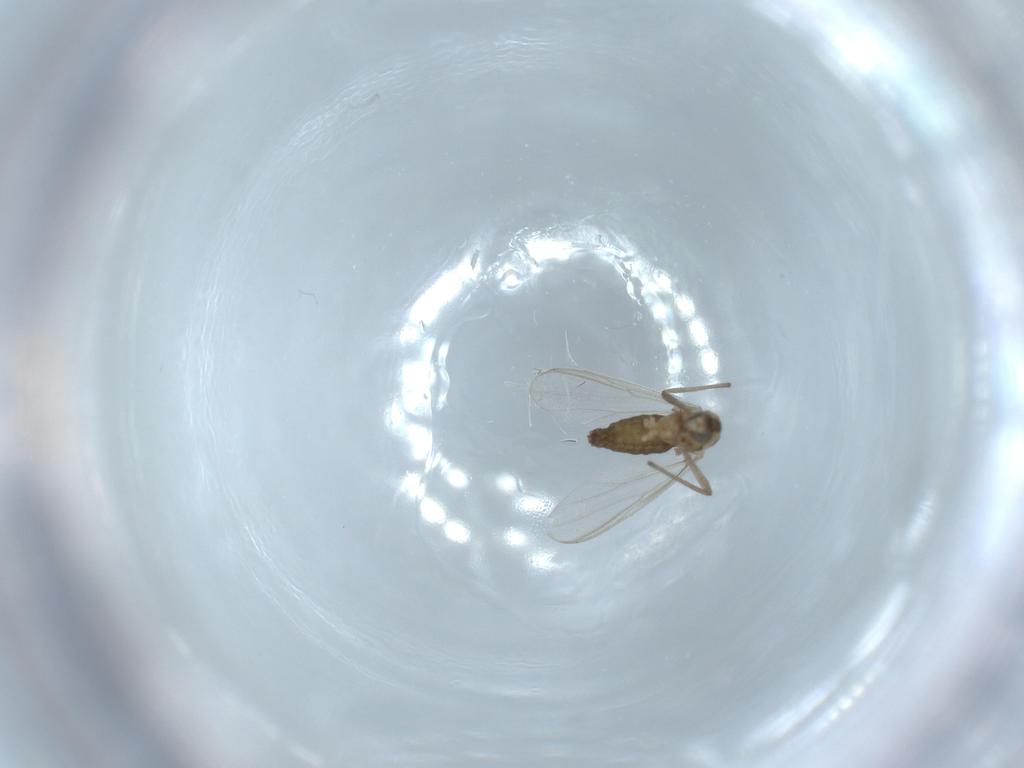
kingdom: Animalia
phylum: Arthropoda
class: Insecta
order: Diptera
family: Chironomidae
